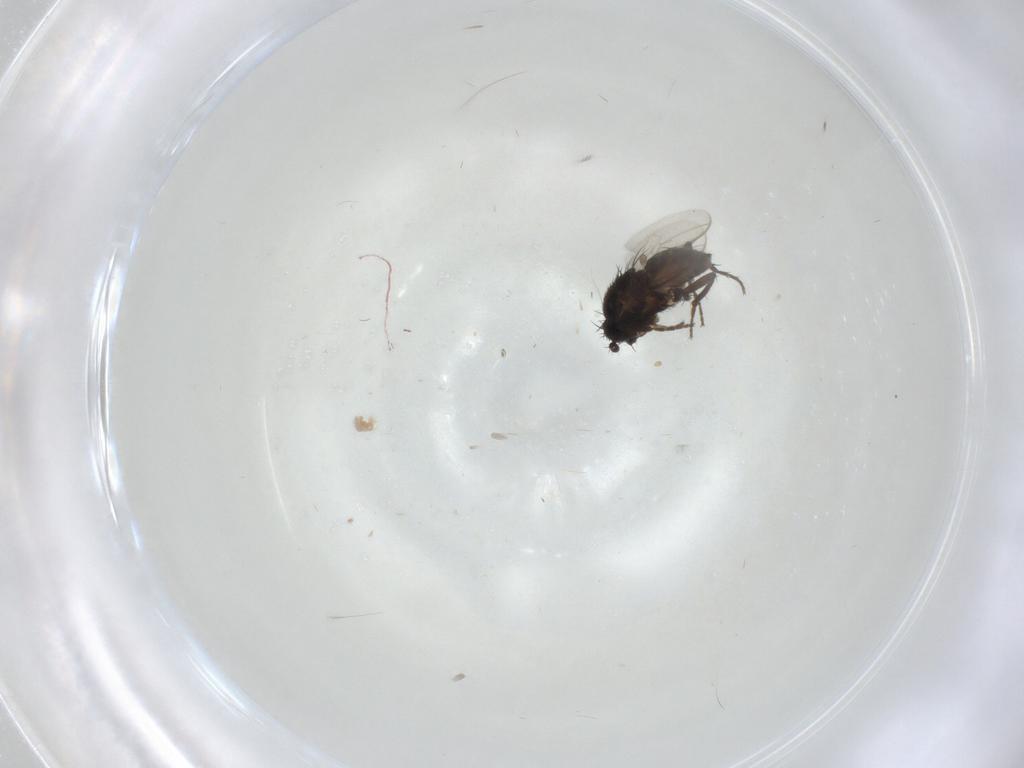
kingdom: Animalia
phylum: Arthropoda
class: Insecta
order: Diptera
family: Sphaeroceridae
